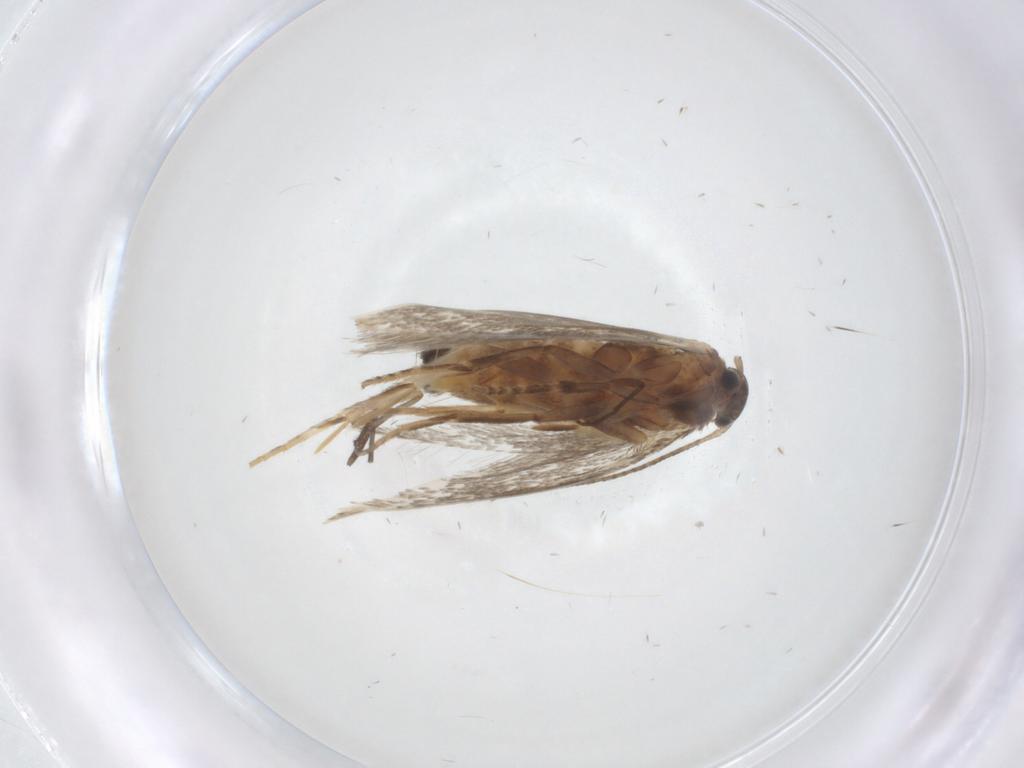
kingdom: Animalia
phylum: Arthropoda
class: Insecta
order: Lepidoptera
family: Elachistidae
